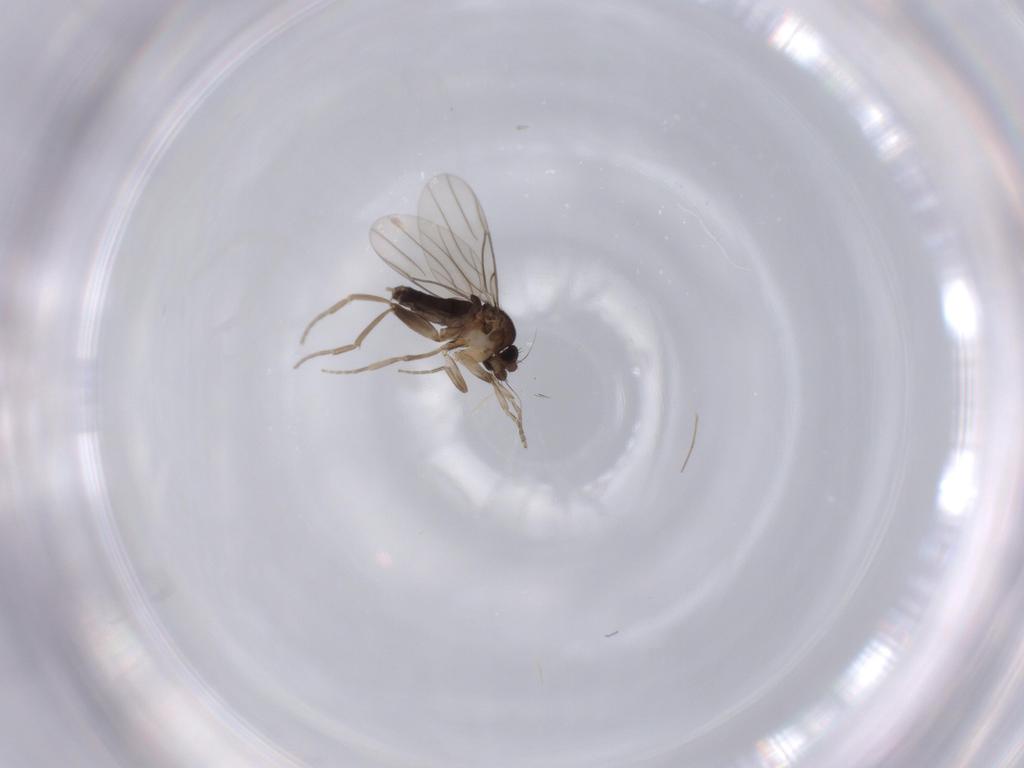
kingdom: Animalia
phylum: Arthropoda
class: Insecta
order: Diptera
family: Phoridae
